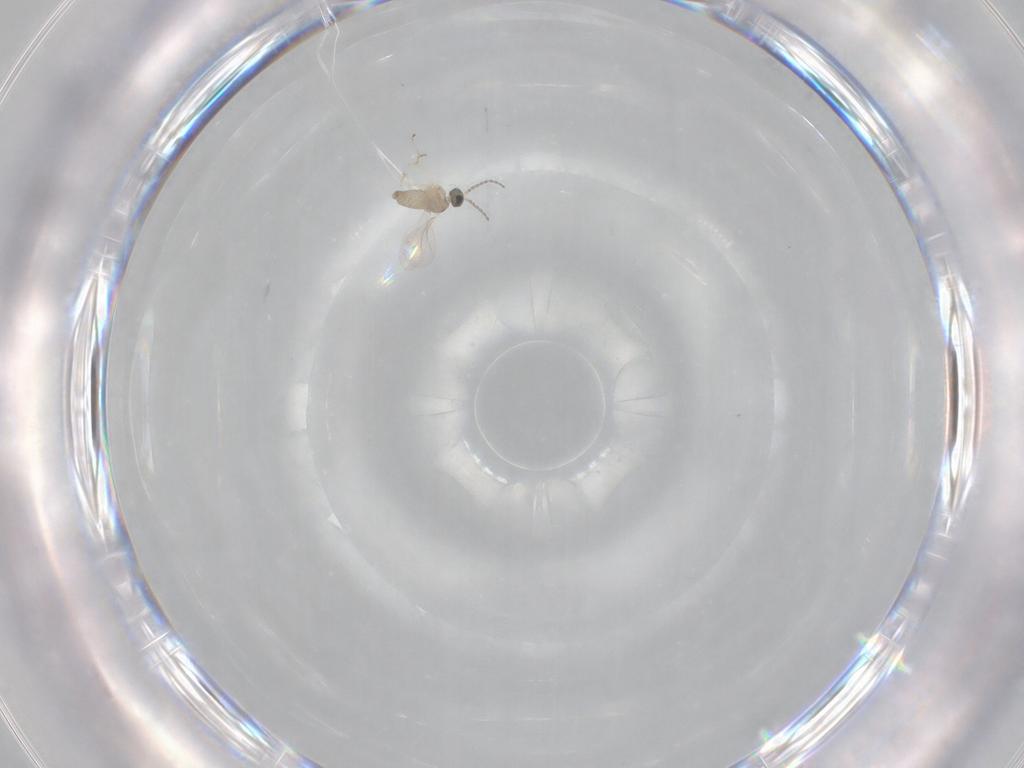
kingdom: Animalia
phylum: Arthropoda
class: Insecta
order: Diptera
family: Cecidomyiidae
